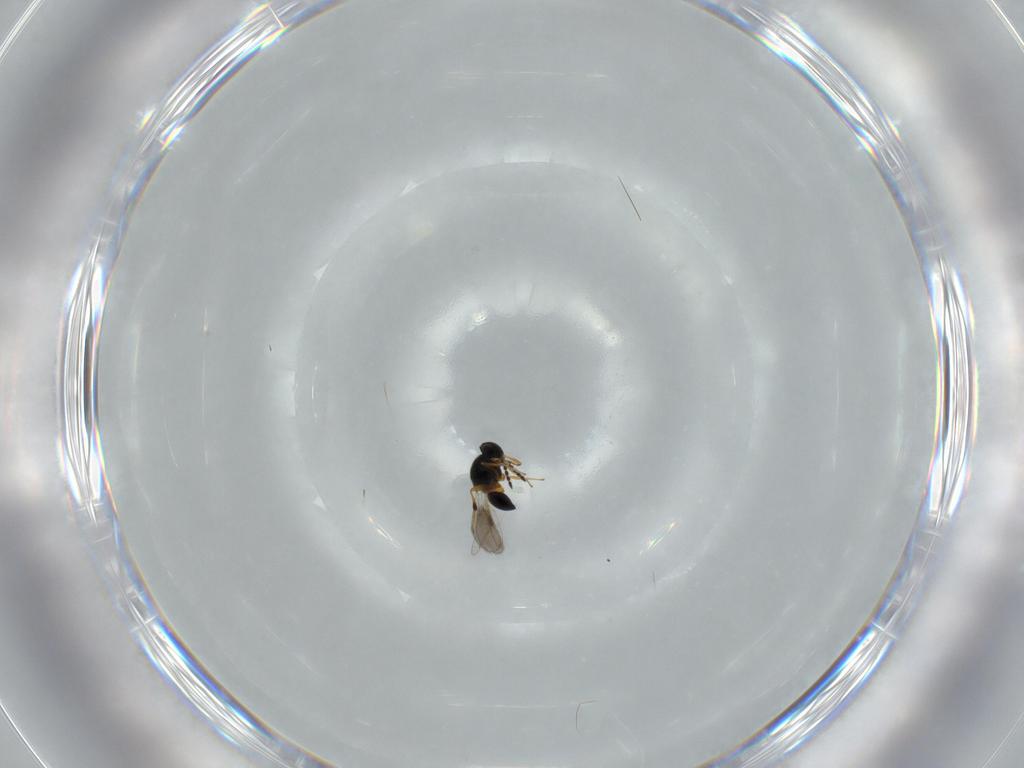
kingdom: Animalia
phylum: Arthropoda
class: Insecta
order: Hymenoptera
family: Platygastridae
